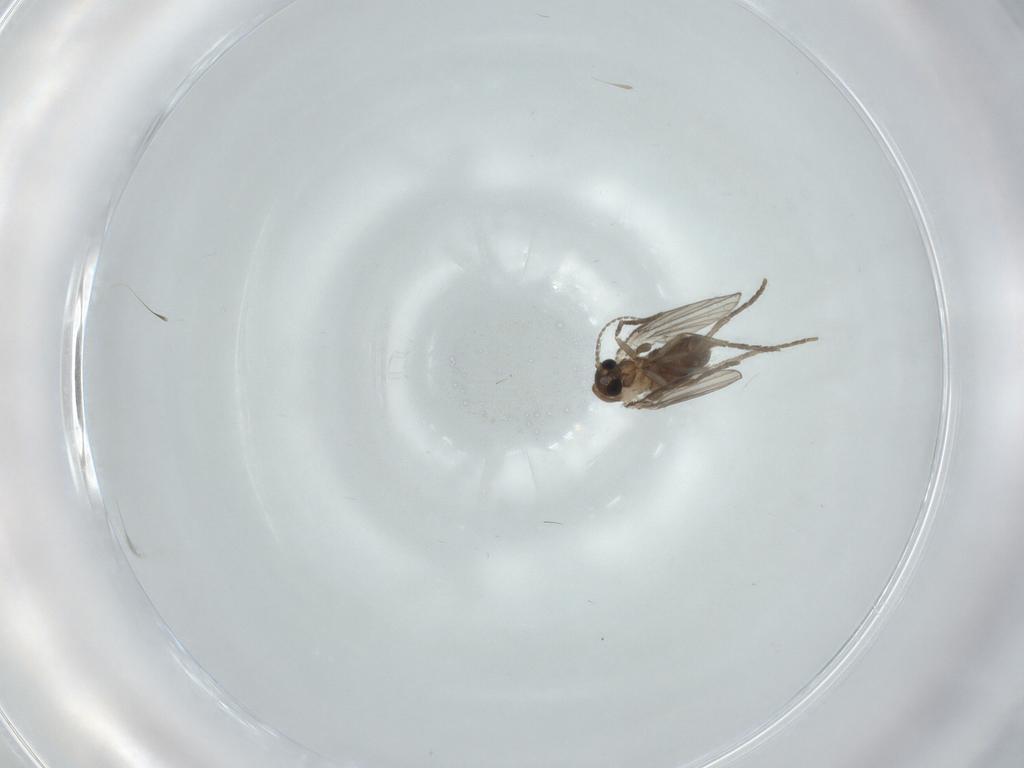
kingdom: Animalia
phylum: Arthropoda
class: Insecta
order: Diptera
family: Psychodidae
